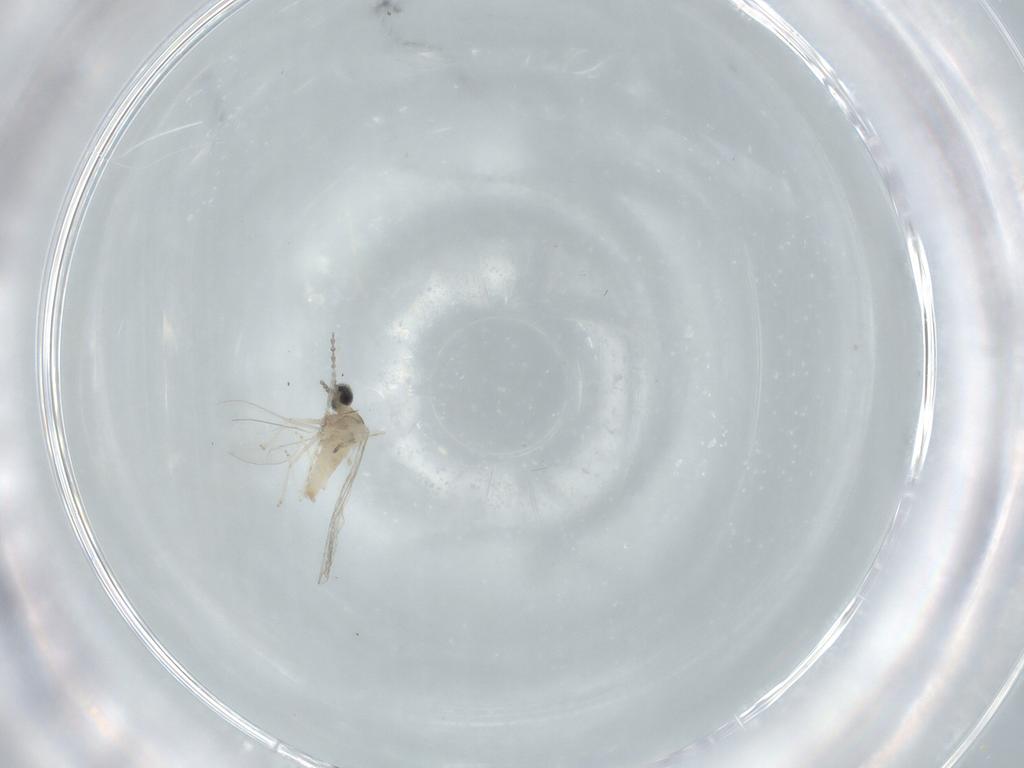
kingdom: Animalia
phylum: Arthropoda
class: Insecta
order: Diptera
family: Cecidomyiidae
